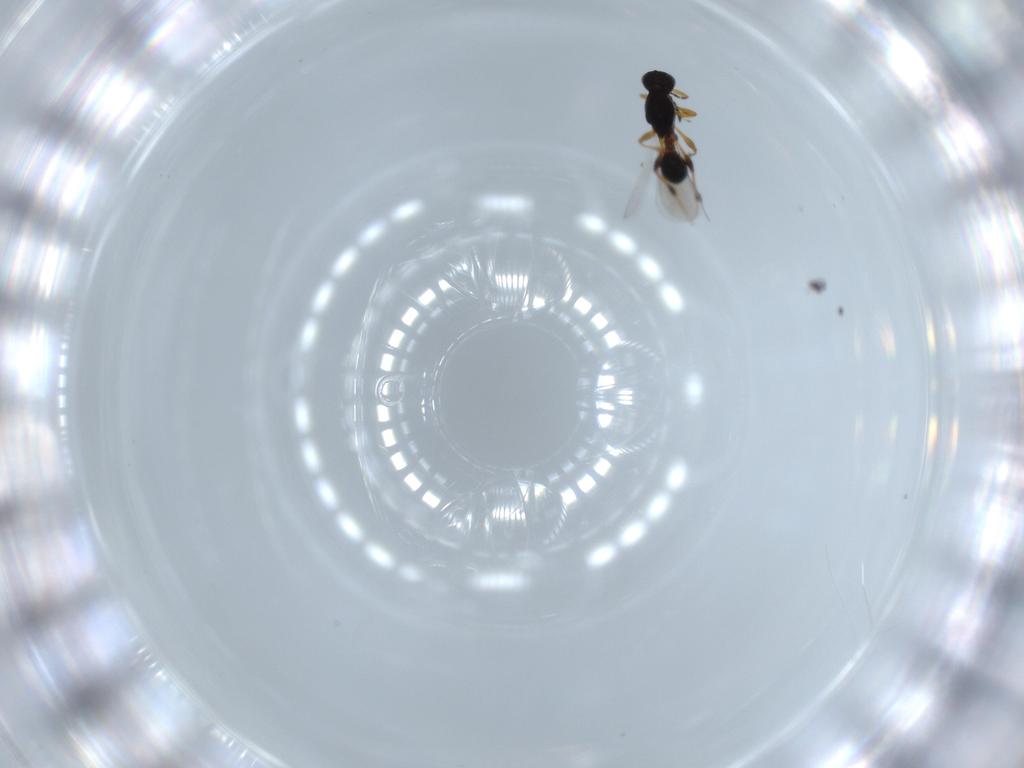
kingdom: Animalia
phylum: Arthropoda
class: Insecta
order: Hymenoptera
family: Platygastridae
